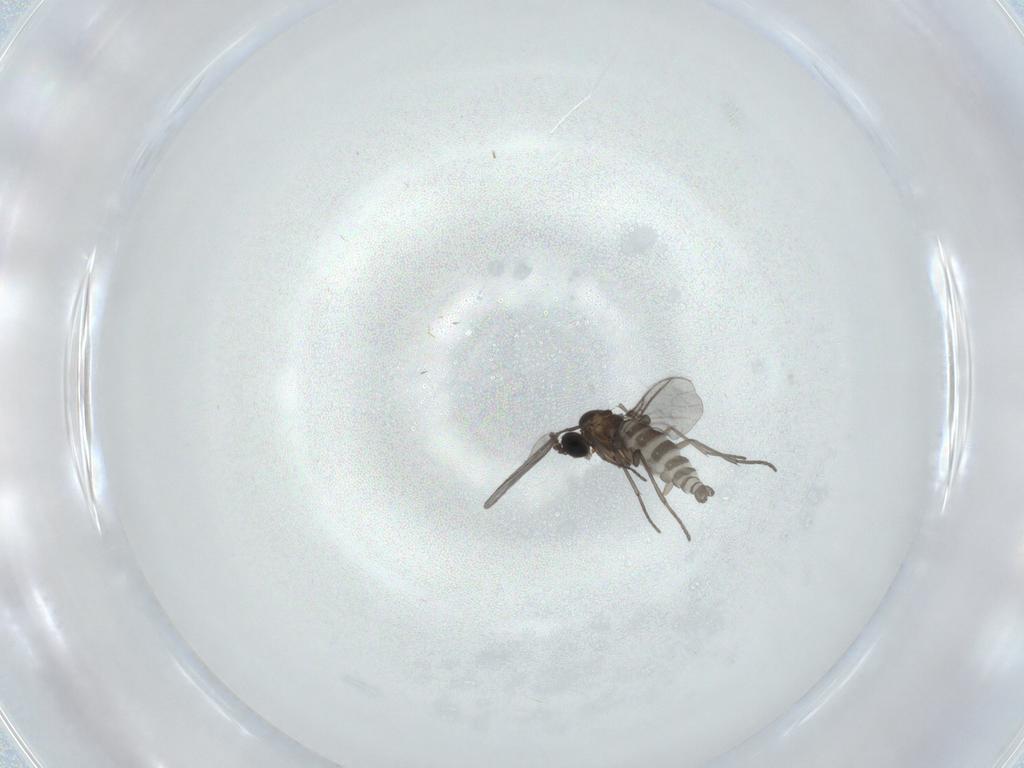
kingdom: Animalia
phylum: Arthropoda
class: Insecta
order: Diptera
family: Sciaridae
